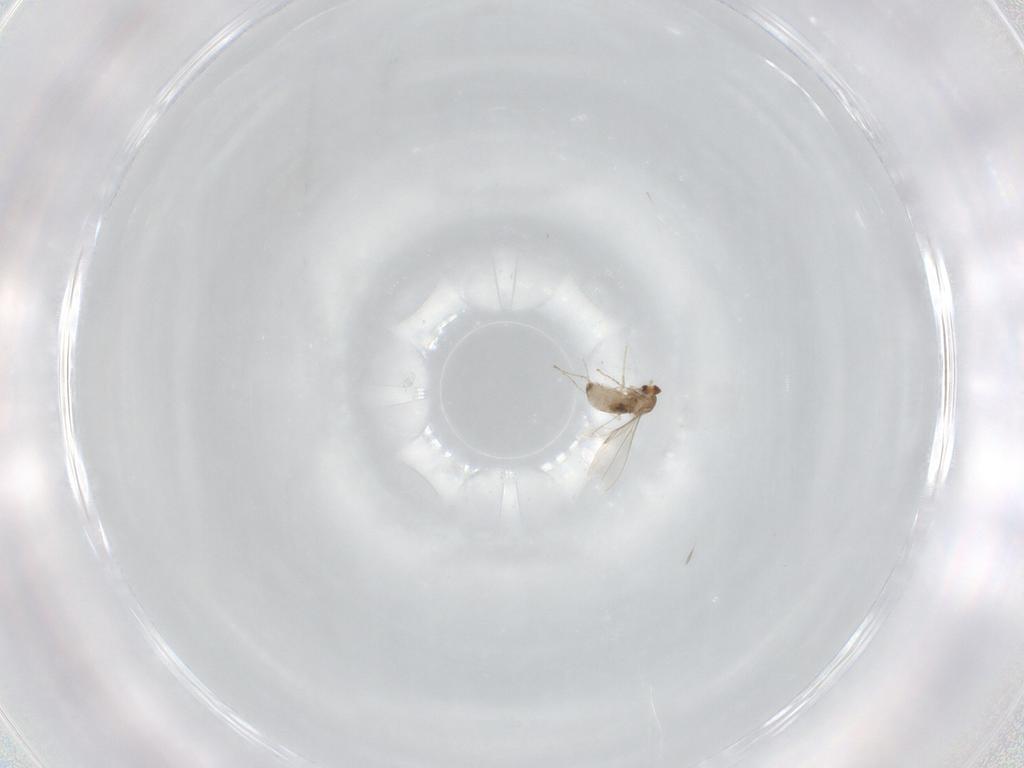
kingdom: Animalia
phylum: Arthropoda
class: Insecta
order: Diptera
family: Cecidomyiidae
